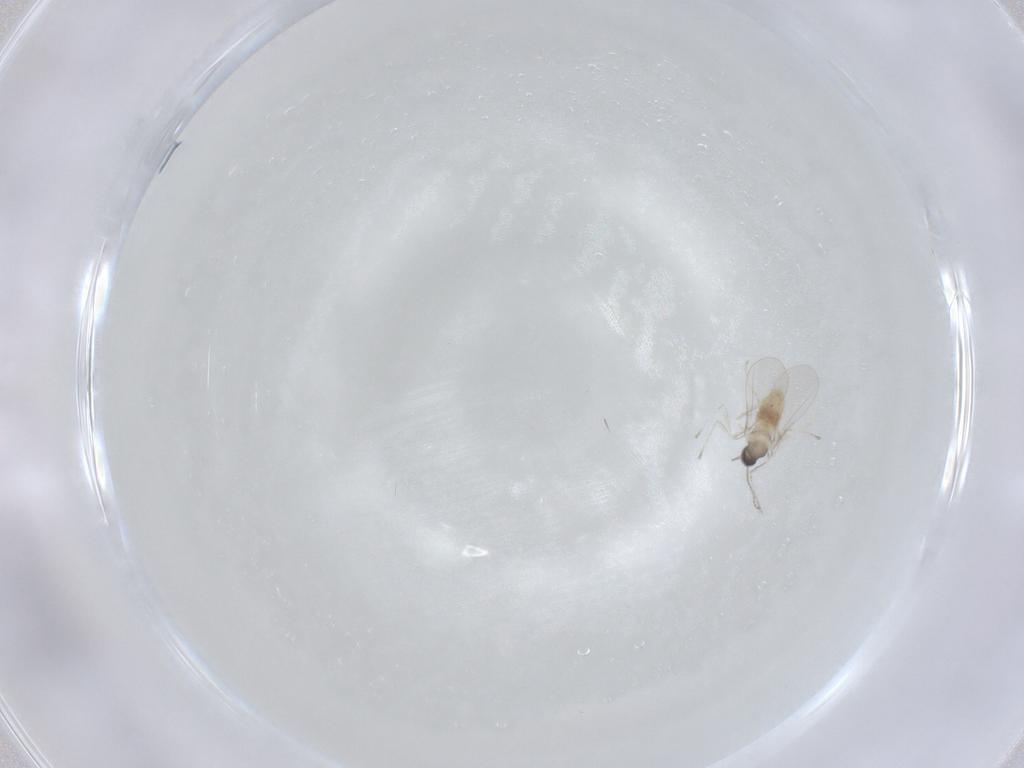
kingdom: Animalia
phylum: Arthropoda
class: Insecta
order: Diptera
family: Cecidomyiidae
